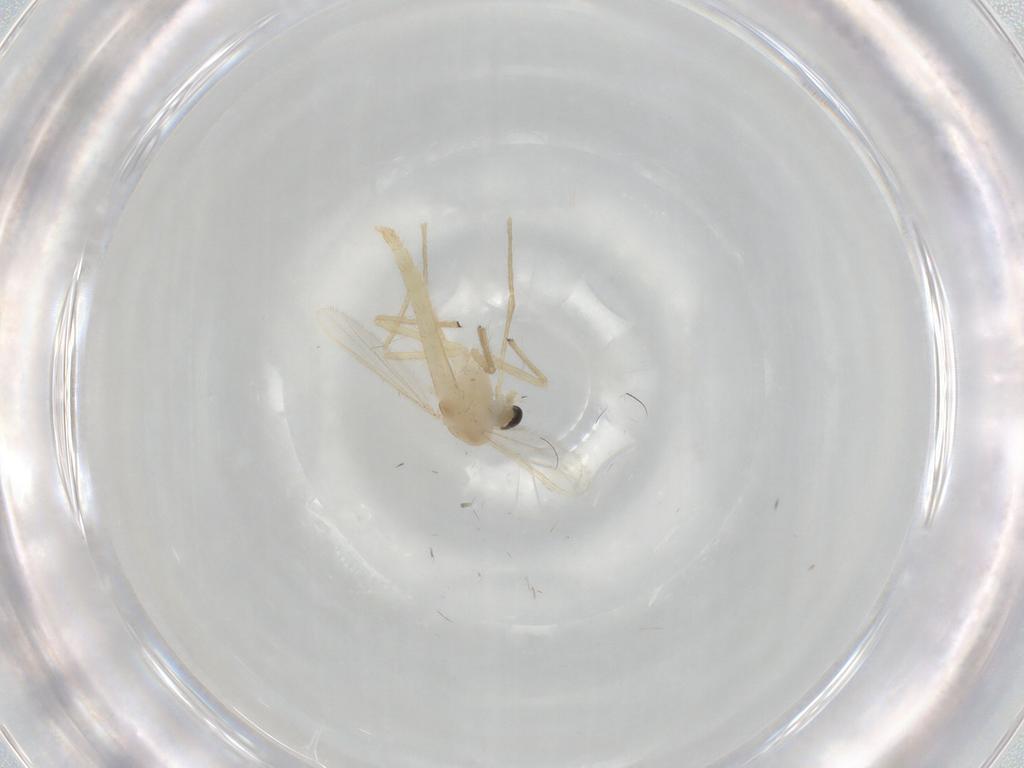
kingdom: Animalia
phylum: Arthropoda
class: Insecta
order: Diptera
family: Chironomidae
